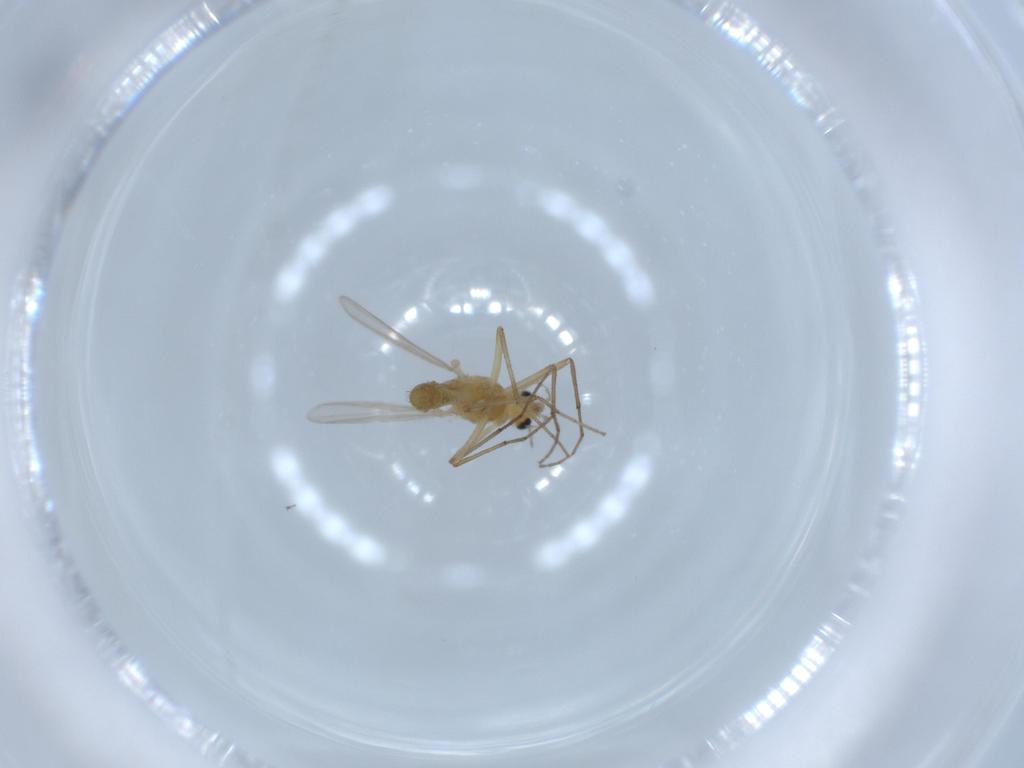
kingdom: Animalia
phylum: Arthropoda
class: Insecta
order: Diptera
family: Chironomidae
